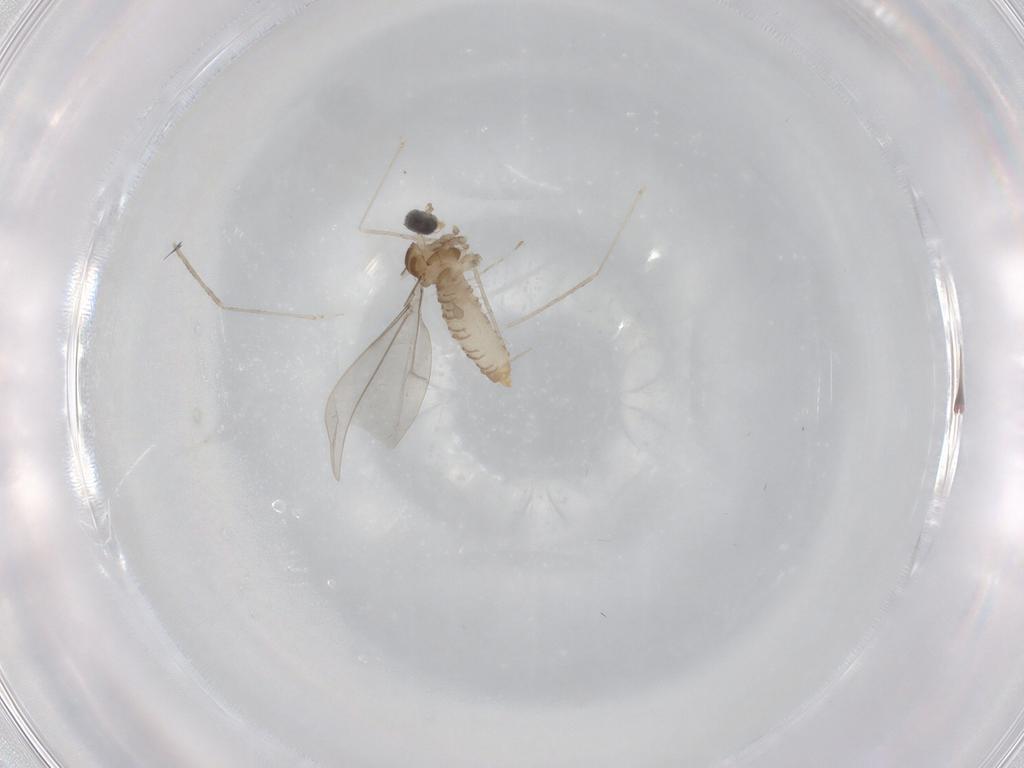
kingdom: Animalia
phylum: Arthropoda
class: Insecta
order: Diptera
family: Cecidomyiidae
